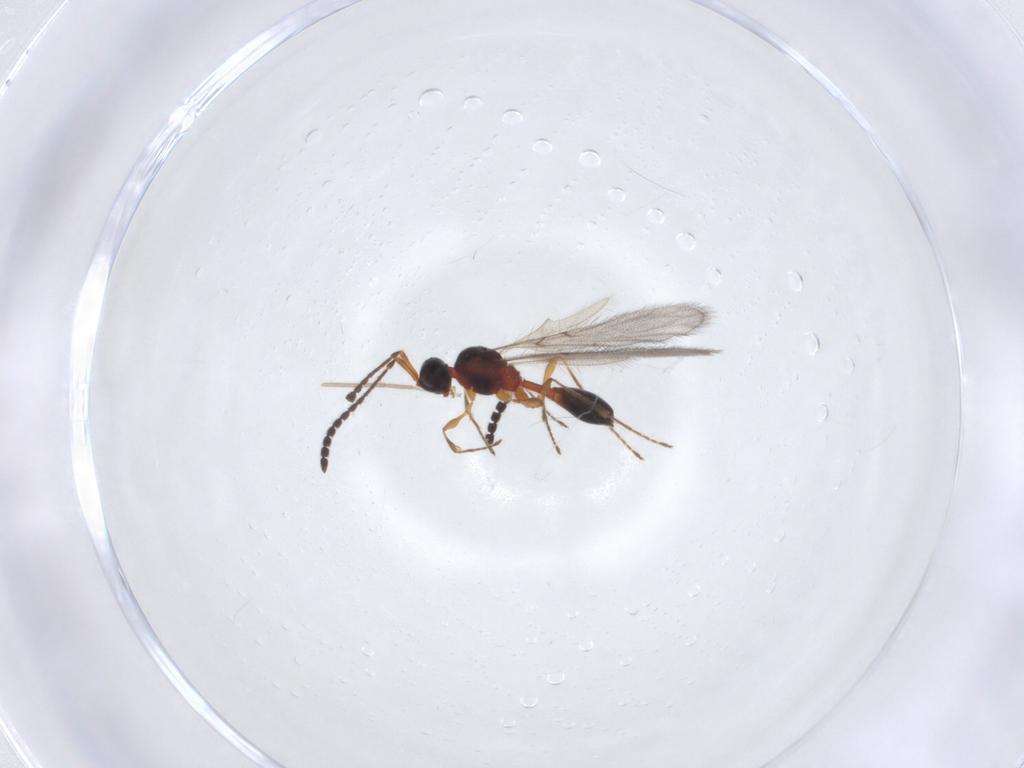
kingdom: Animalia
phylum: Arthropoda
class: Insecta
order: Hymenoptera
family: Diapriidae
